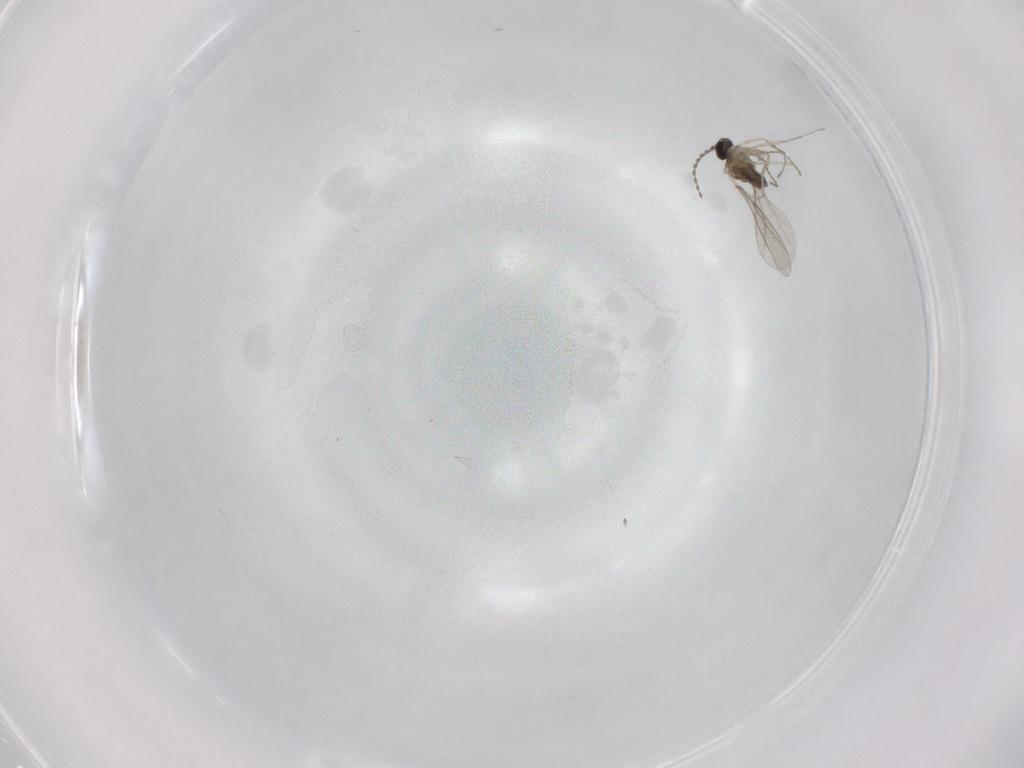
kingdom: Animalia
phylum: Arthropoda
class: Insecta
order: Diptera
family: Cecidomyiidae
